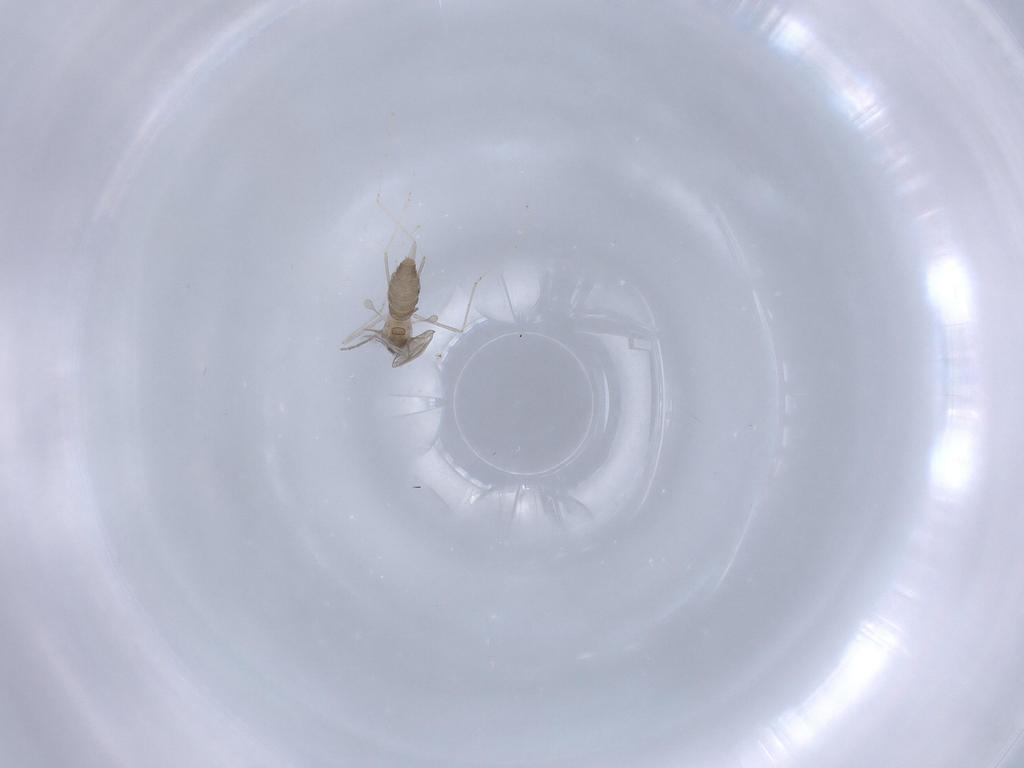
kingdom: Animalia
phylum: Arthropoda
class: Insecta
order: Diptera
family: Cecidomyiidae
